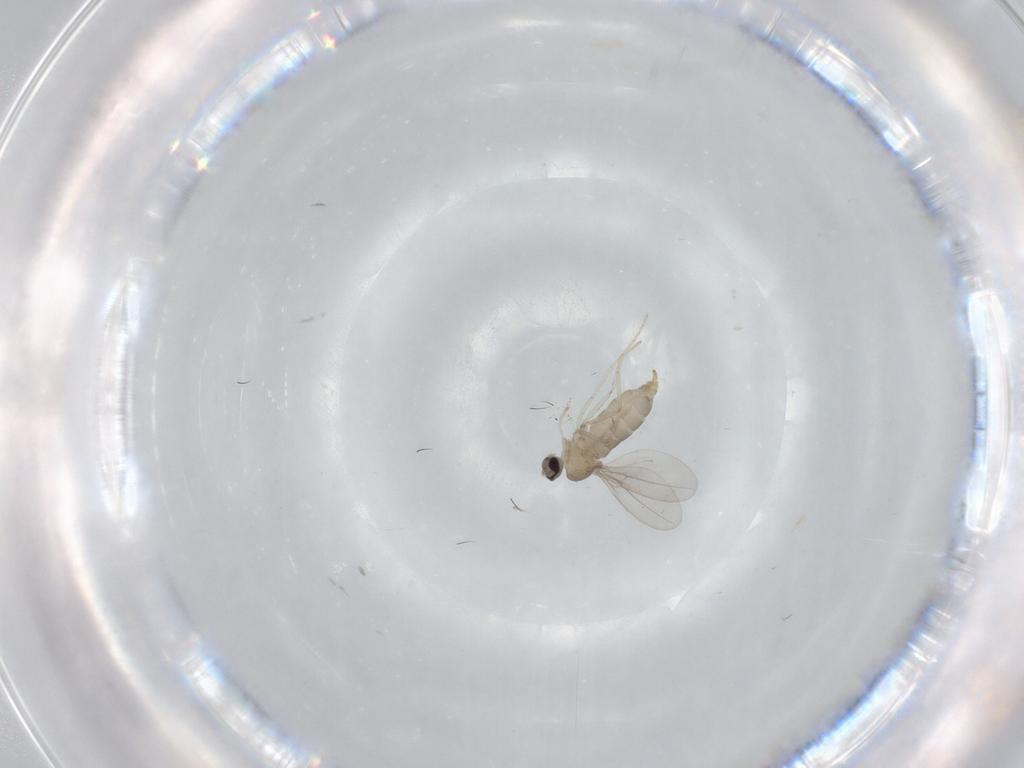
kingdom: Animalia
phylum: Arthropoda
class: Insecta
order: Diptera
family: Cecidomyiidae
